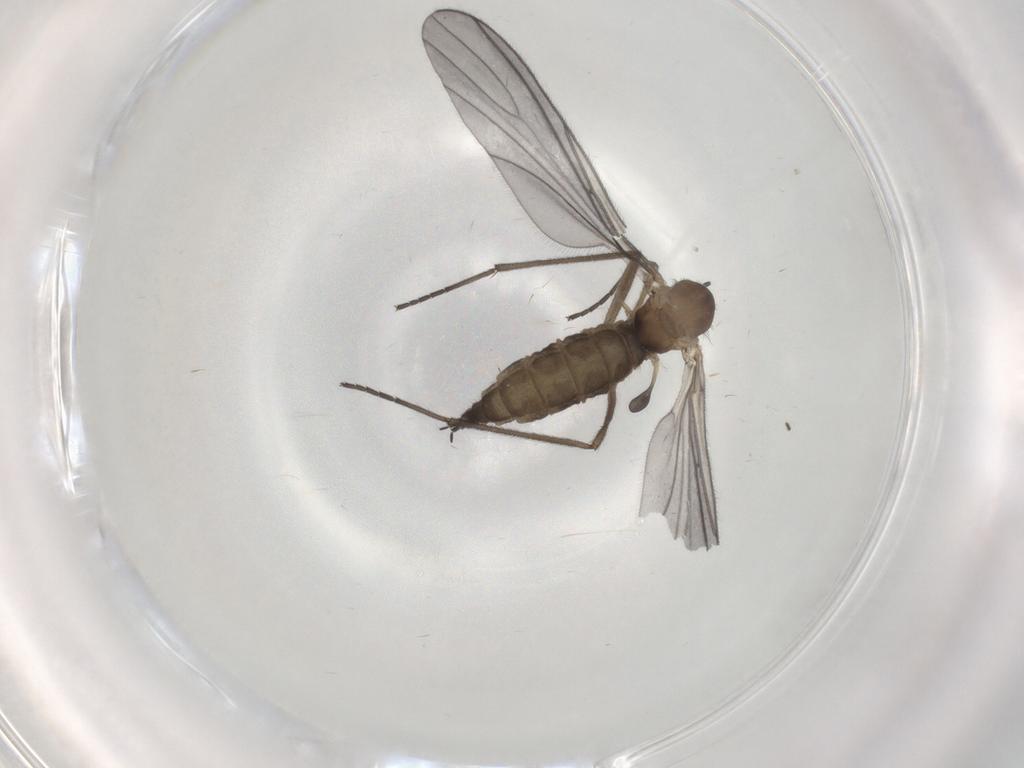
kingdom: Animalia
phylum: Arthropoda
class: Insecta
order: Diptera
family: Sciaridae
